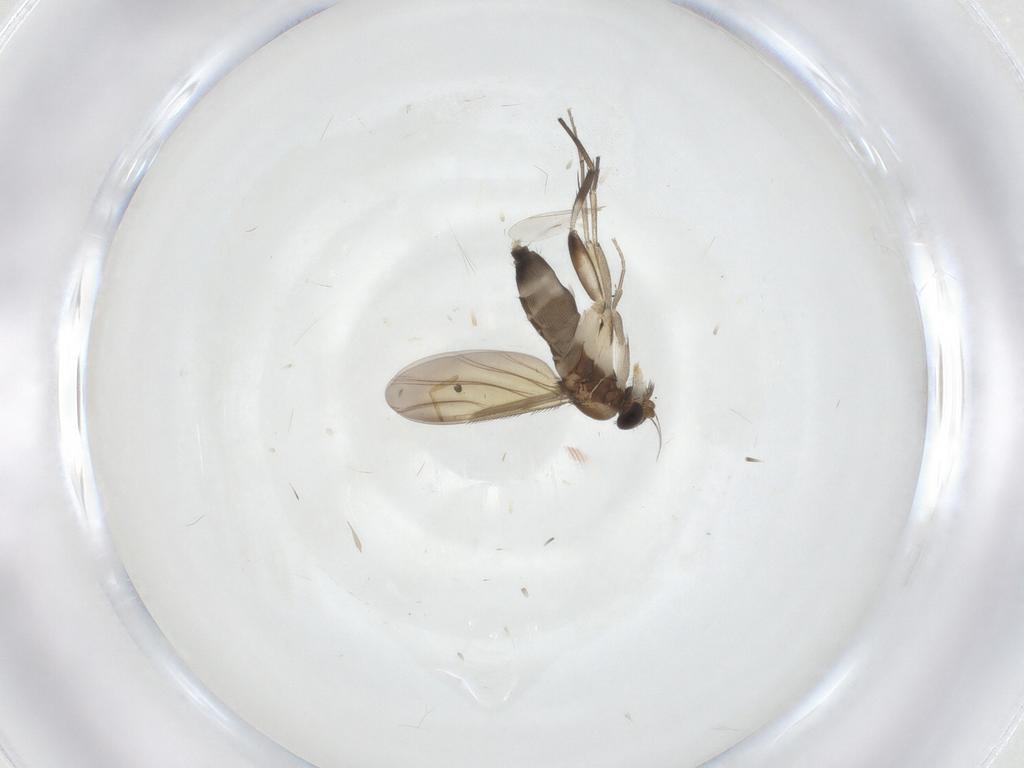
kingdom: Animalia
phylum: Arthropoda
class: Insecta
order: Diptera
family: Phoridae
